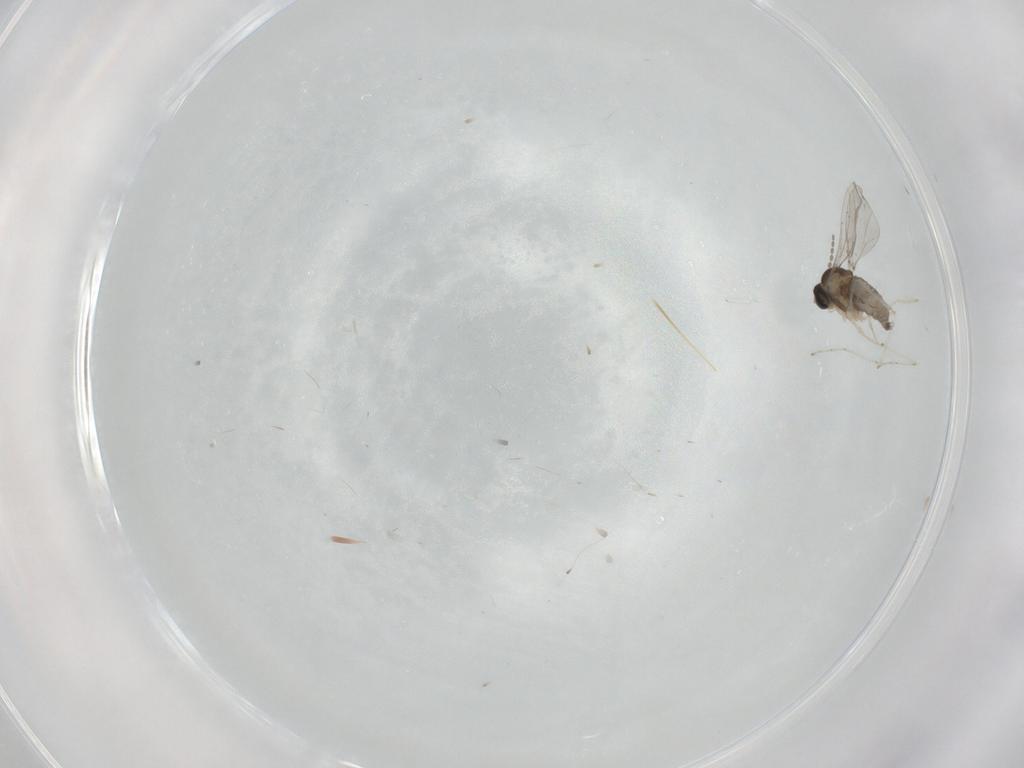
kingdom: Animalia
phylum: Arthropoda
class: Insecta
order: Diptera
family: Cecidomyiidae
